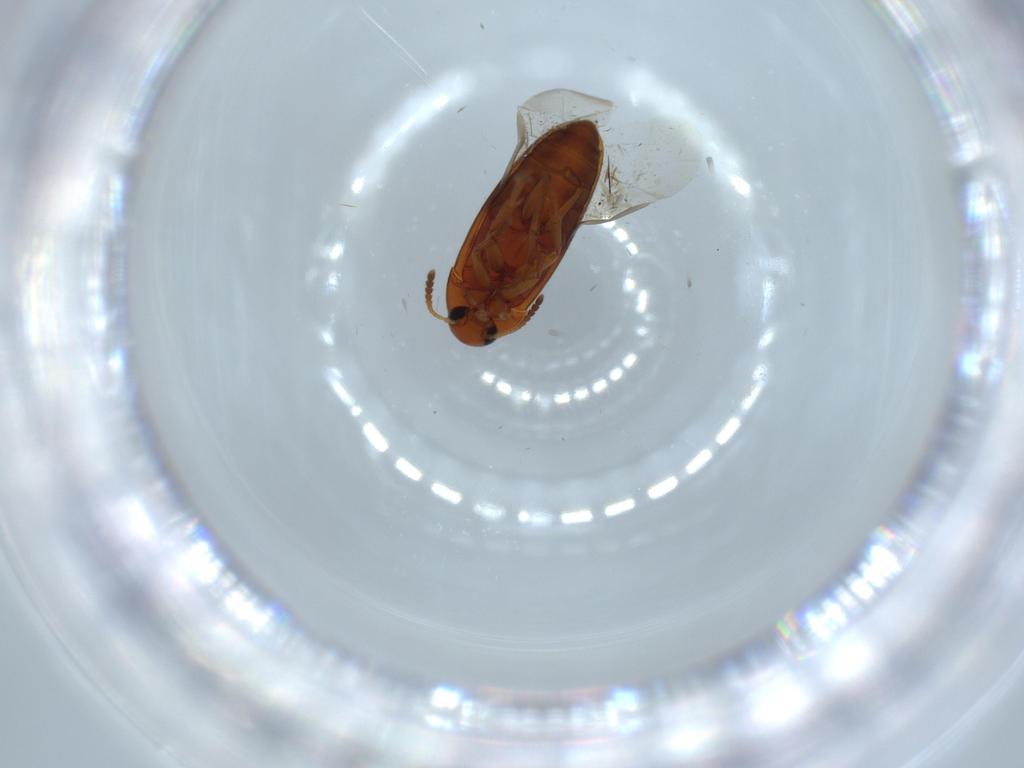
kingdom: Animalia
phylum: Arthropoda
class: Insecta
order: Coleoptera
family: Scraptiidae
